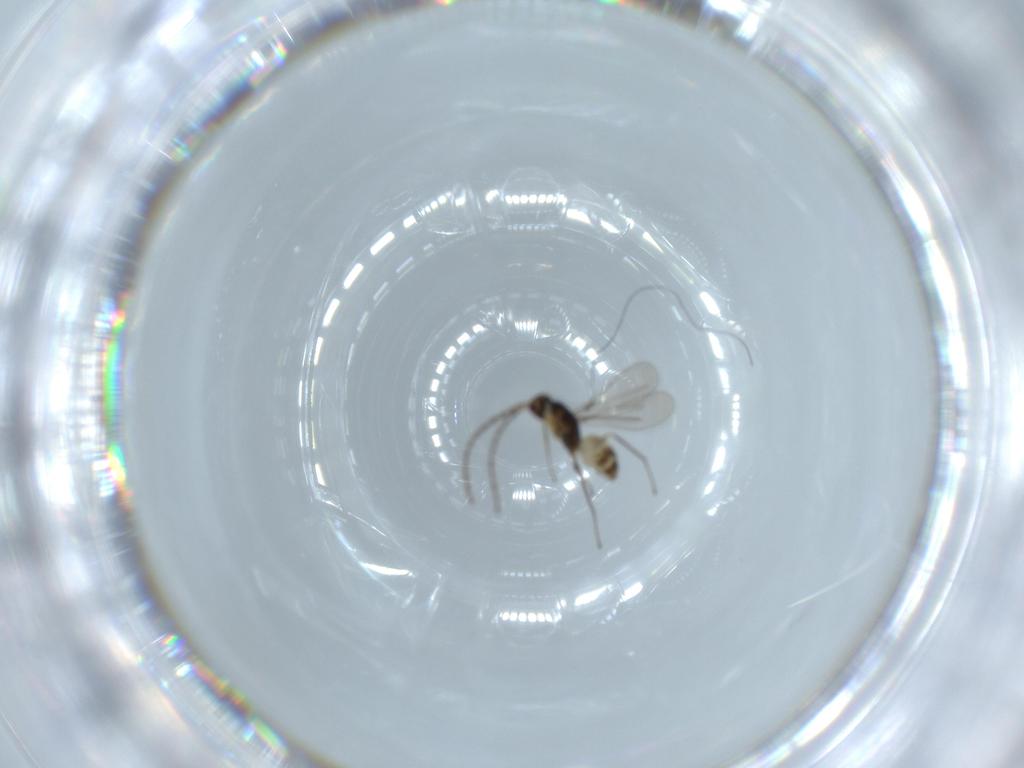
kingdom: Animalia
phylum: Arthropoda
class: Insecta
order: Hymenoptera
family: Mymaridae
